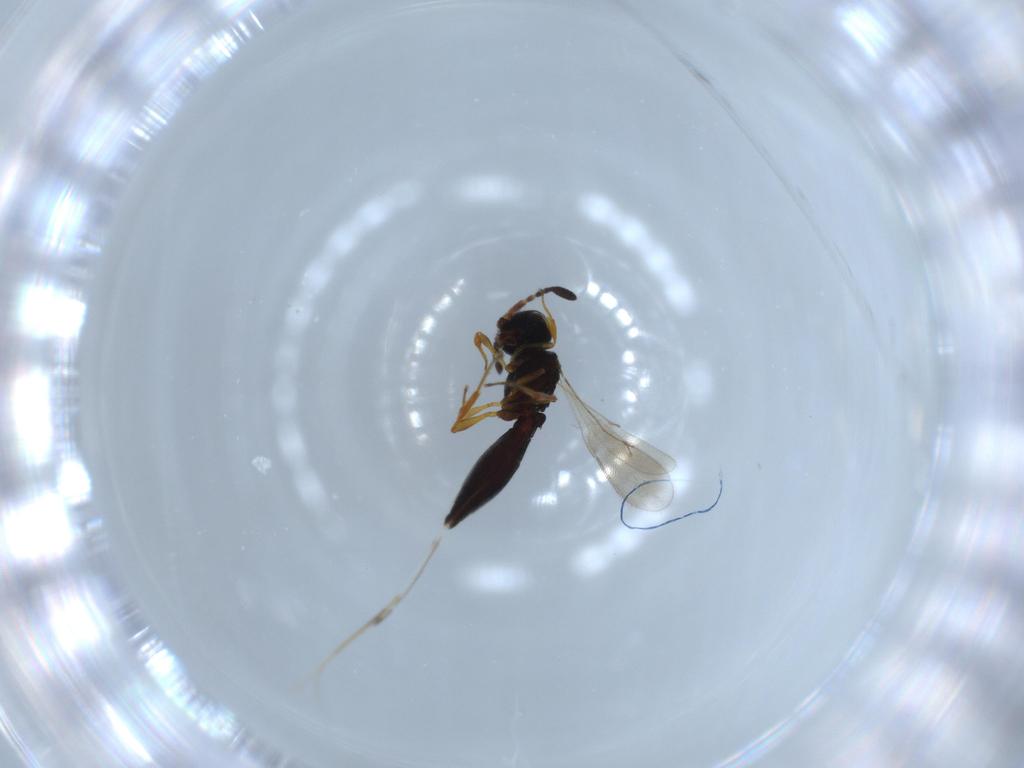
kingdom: Animalia
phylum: Arthropoda
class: Insecta
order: Hymenoptera
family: Scelionidae
